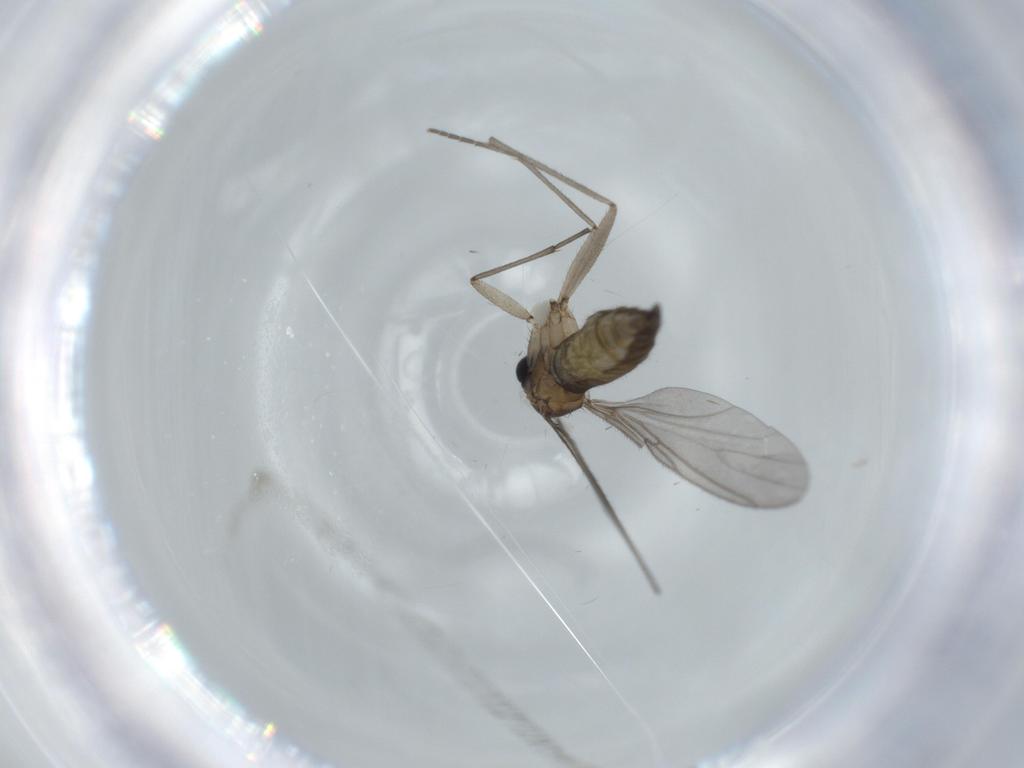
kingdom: Animalia
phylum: Arthropoda
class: Insecta
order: Diptera
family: Sciaridae
